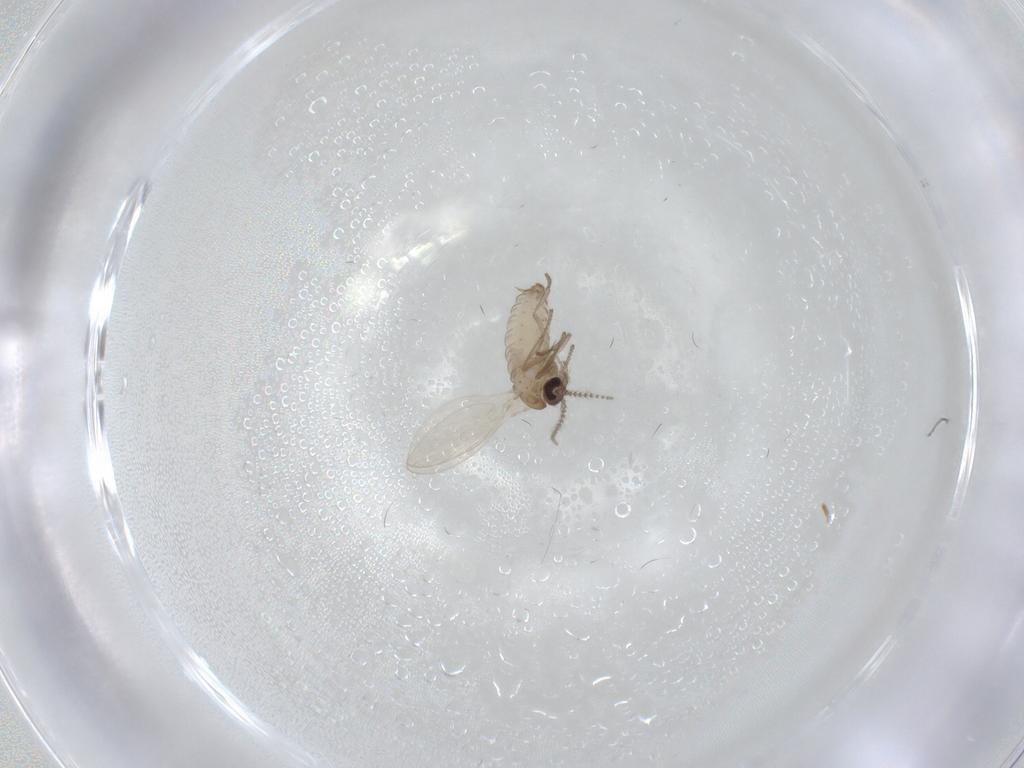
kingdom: Animalia
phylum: Arthropoda
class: Insecta
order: Diptera
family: Psychodidae
